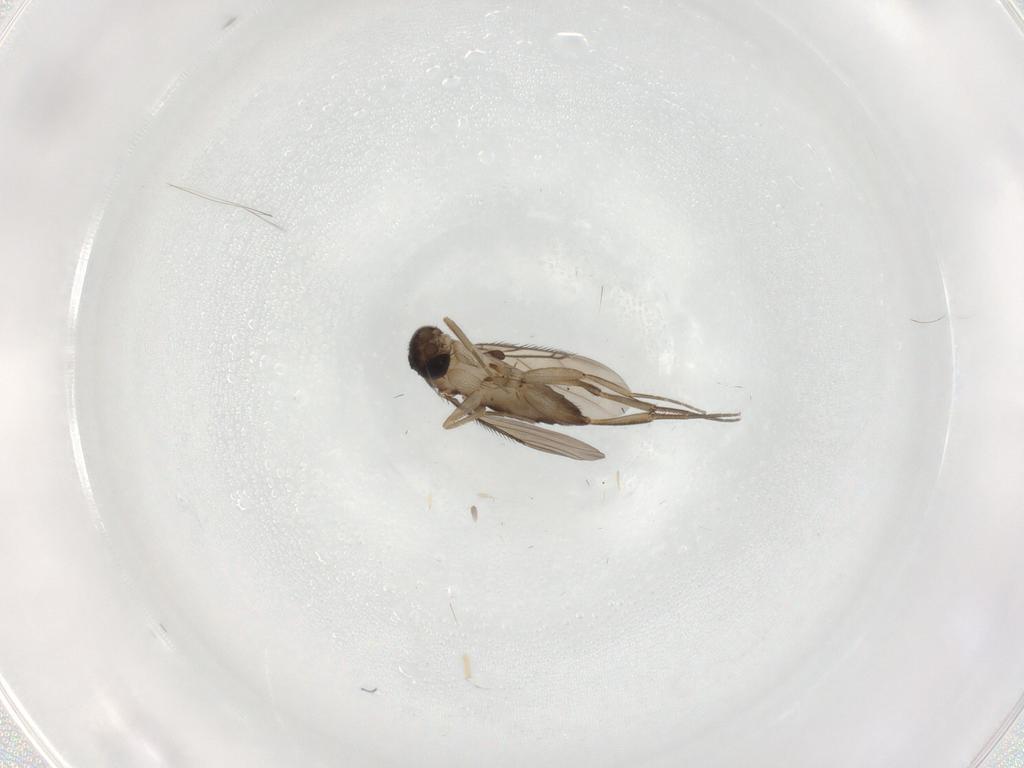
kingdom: Animalia
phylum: Arthropoda
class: Insecta
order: Diptera
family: Phoridae
